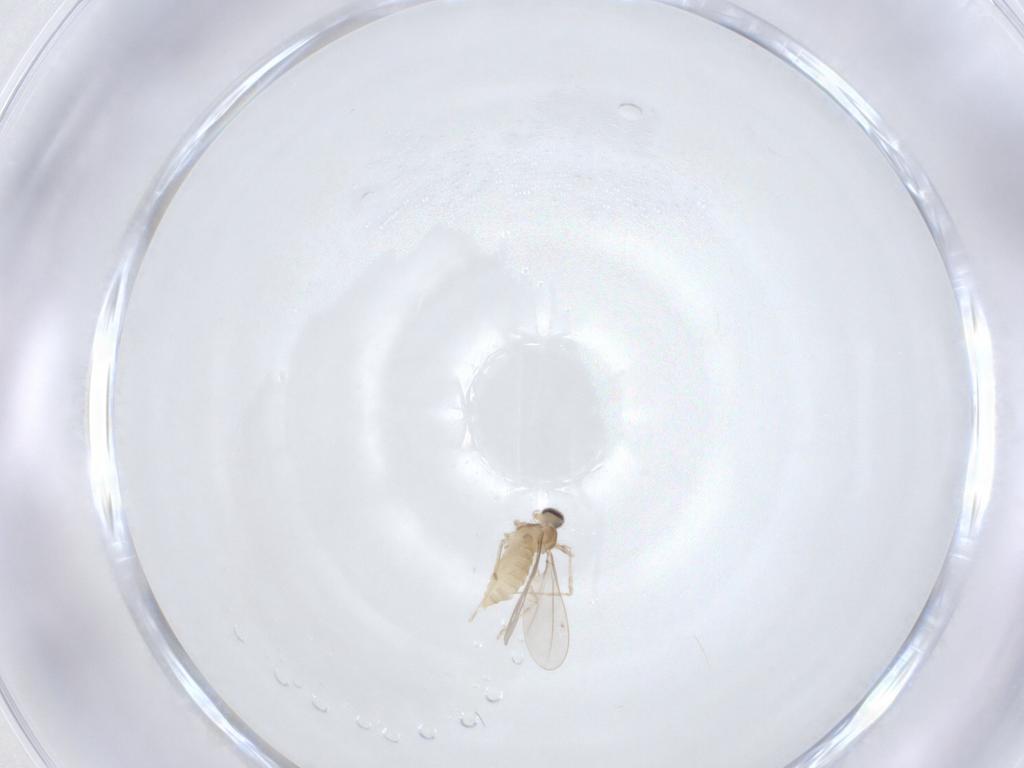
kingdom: Animalia
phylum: Arthropoda
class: Insecta
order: Diptera
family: Cecidomyiidae
